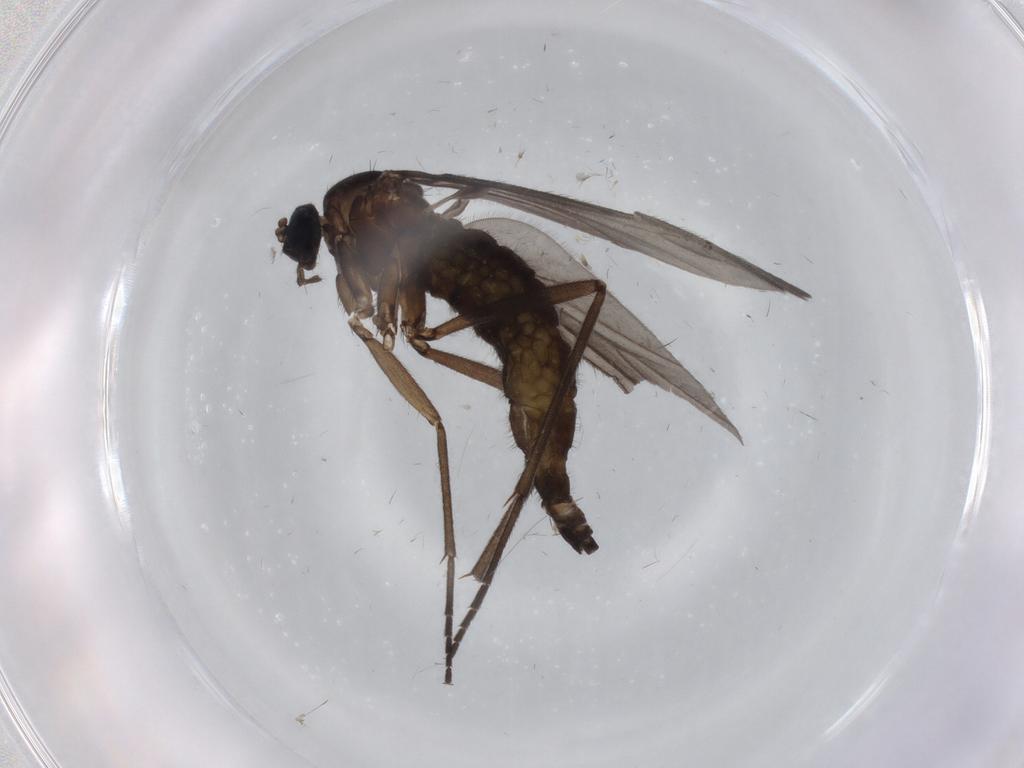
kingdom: Animalia
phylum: Arthropoda
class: Insecta
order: Diptera
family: Sciaridae
